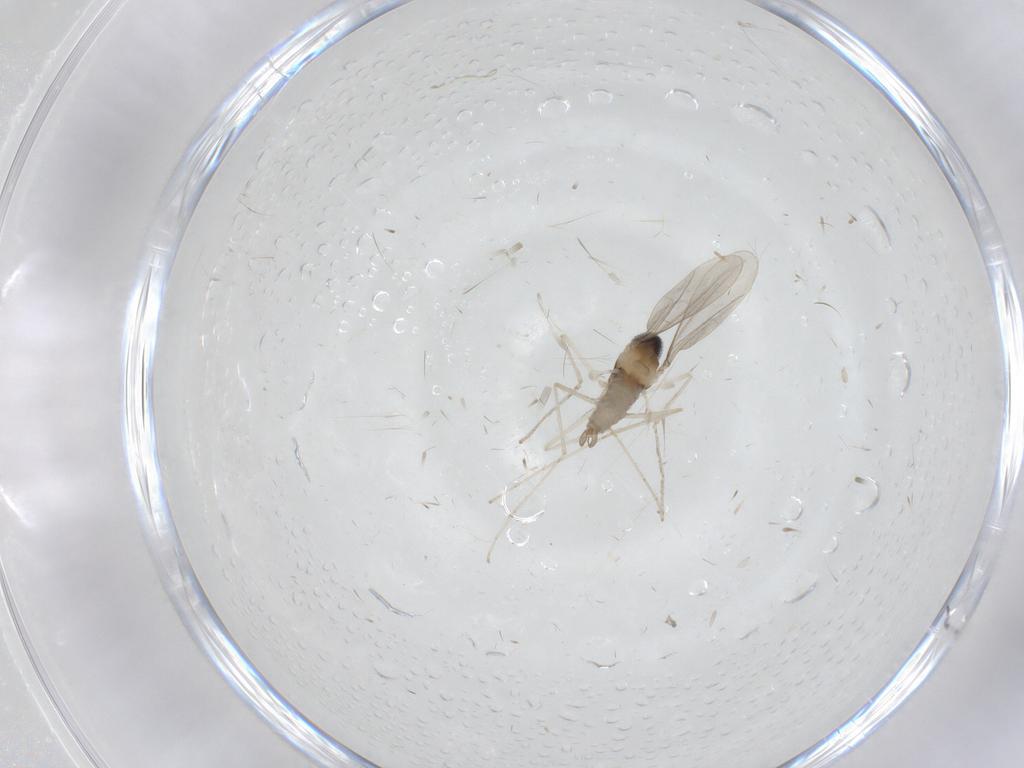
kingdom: Animalia
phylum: Arthropoda
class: Insecta
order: Diptera
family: Cecidomyiidae
